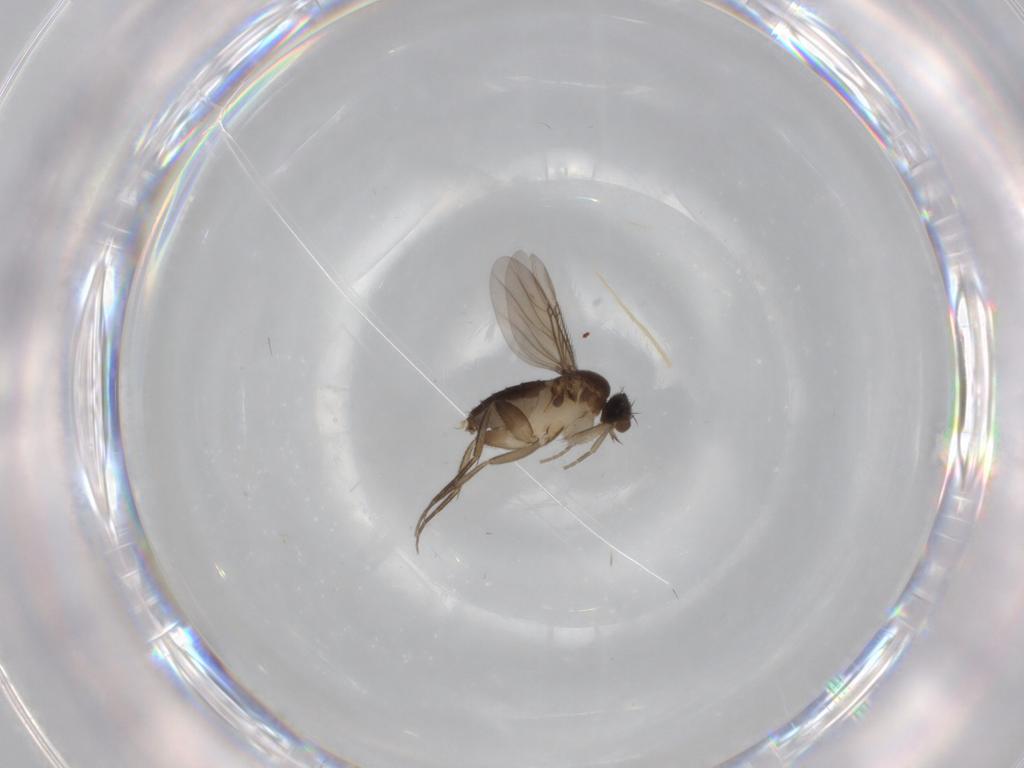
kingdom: Animalia
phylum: Arthropoda
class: Insecta
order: Diptera
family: Phoridae
